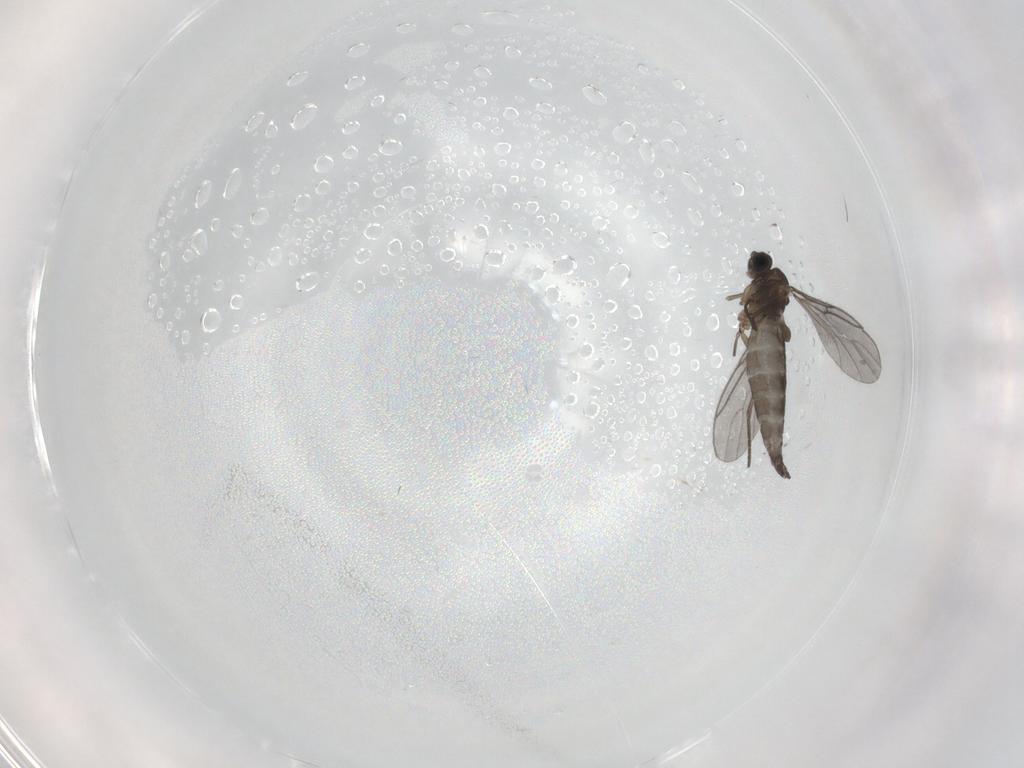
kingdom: Animalia
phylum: Arthropoda
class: Insecta
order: Diptera
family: Sciaridae
